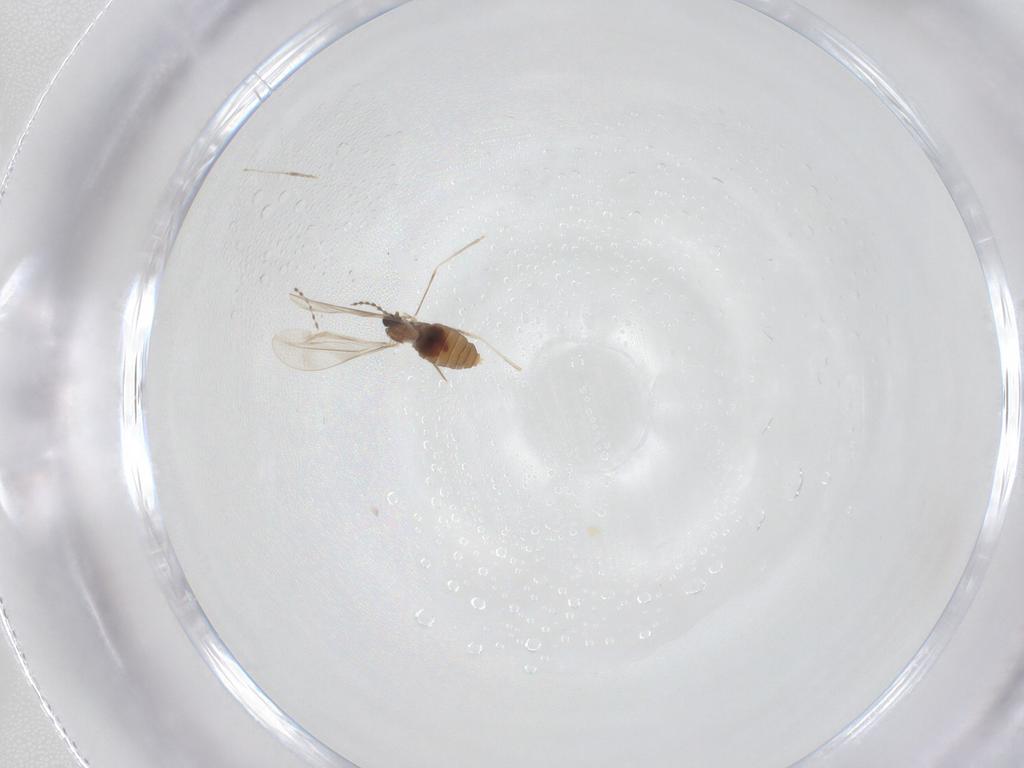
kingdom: Animalia
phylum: Arthropoda
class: Insecta
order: Diptera
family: Cecidomyiidae
